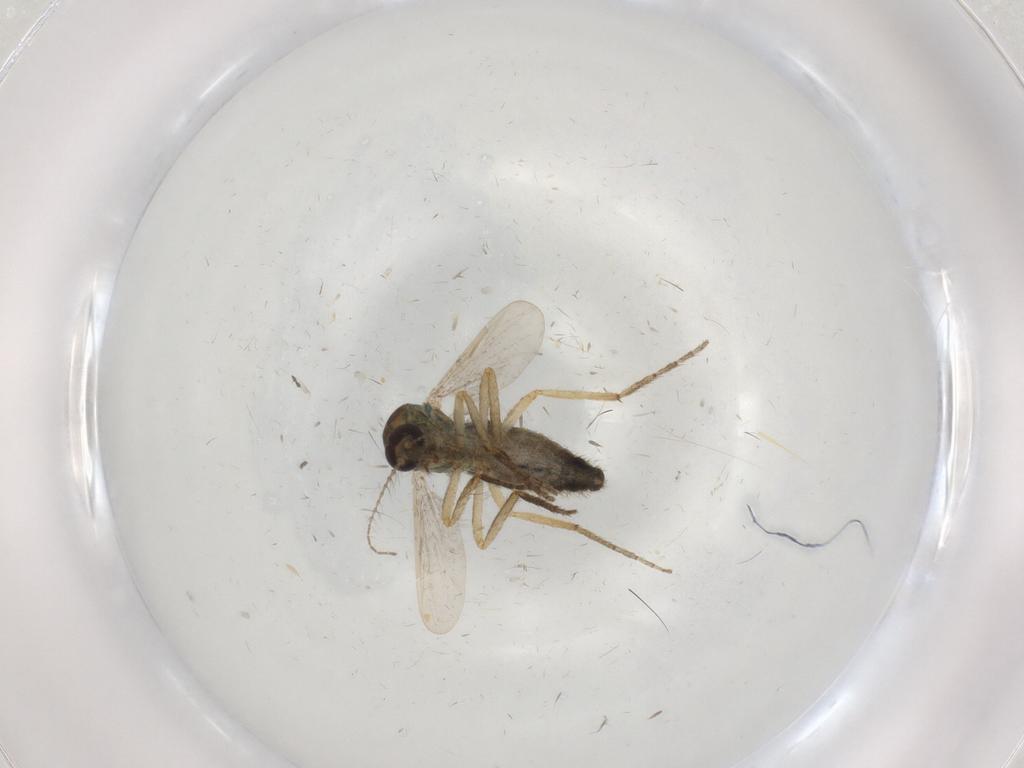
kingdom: Animalia
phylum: Arthropoda
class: Insecta
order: Diptera
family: Ceratopogonidae
